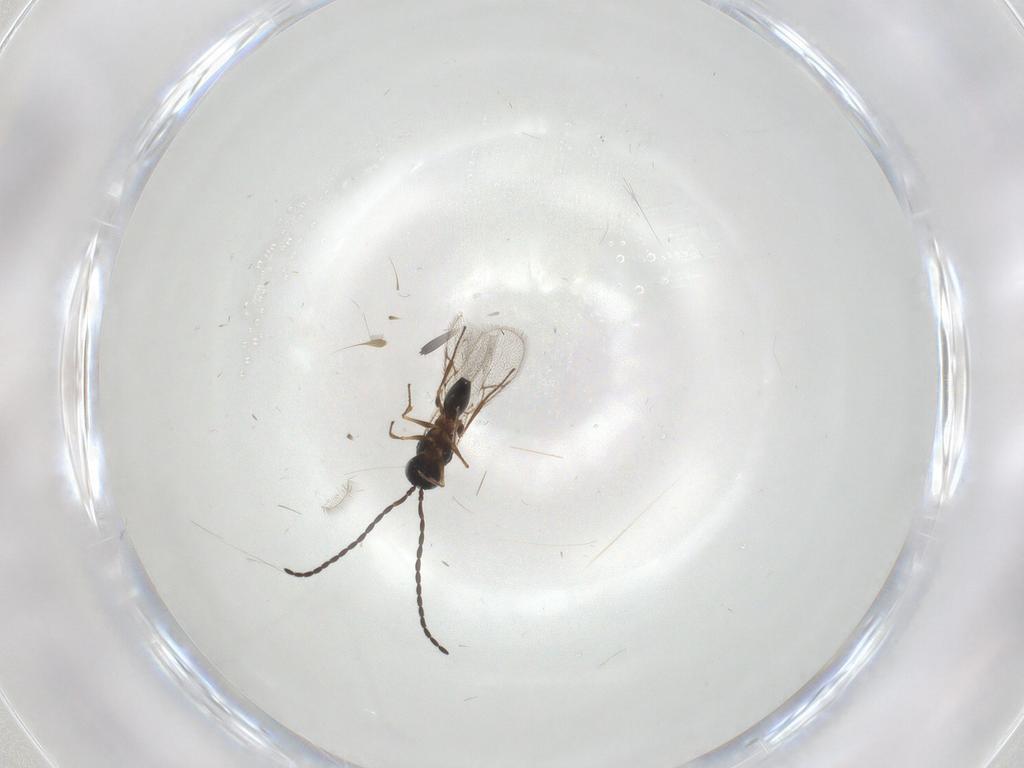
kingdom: Animalia
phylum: Arthropoda
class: Insecta
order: Hymenoptera
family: Figitidae
